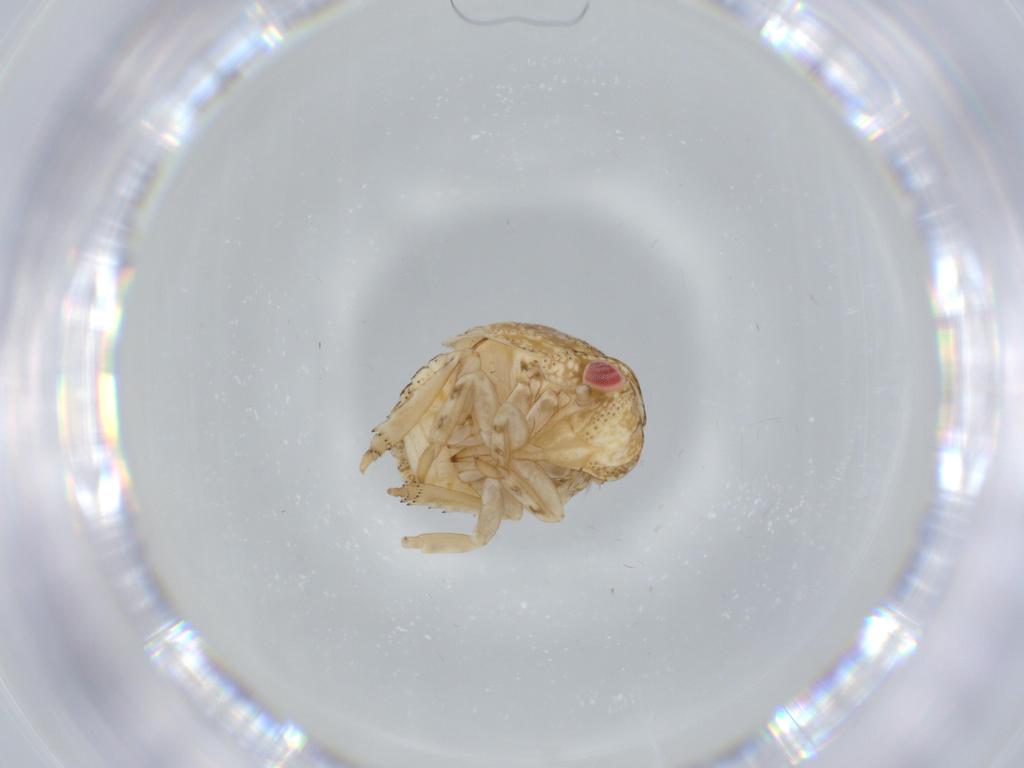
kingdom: Animalia
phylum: Arthropoda
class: Insecta
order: Hemiptera
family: Acanaloniidae
